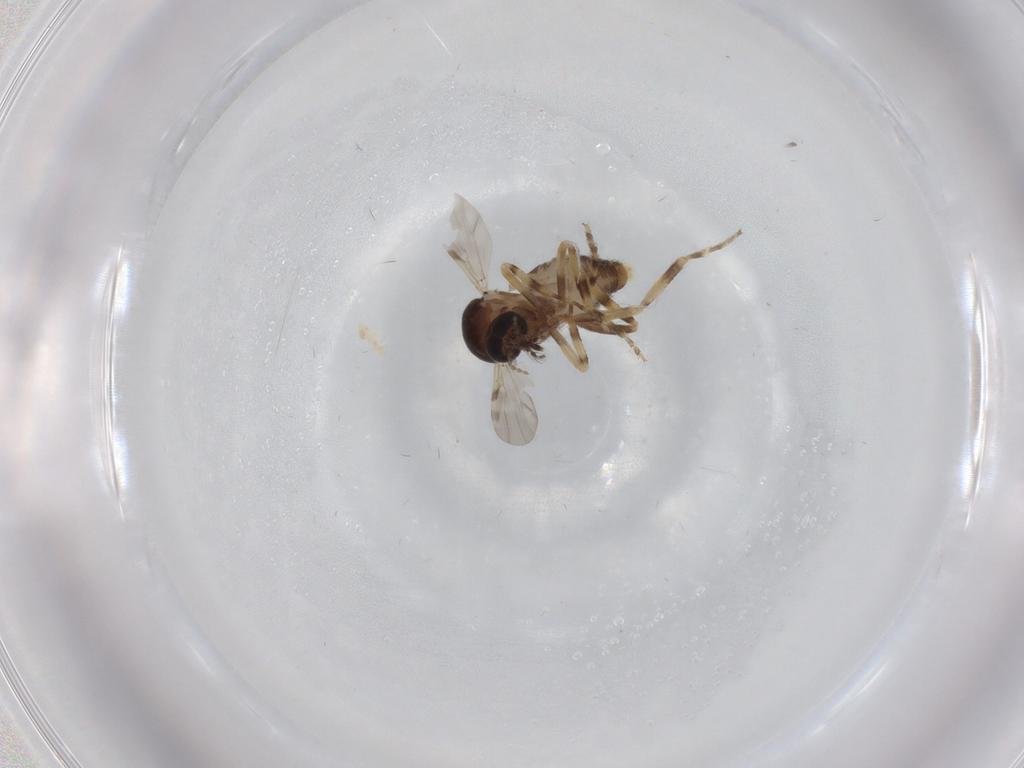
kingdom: Animalia
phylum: Arthropoda
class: Insecta
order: Diptera
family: Ceratopogonidae
